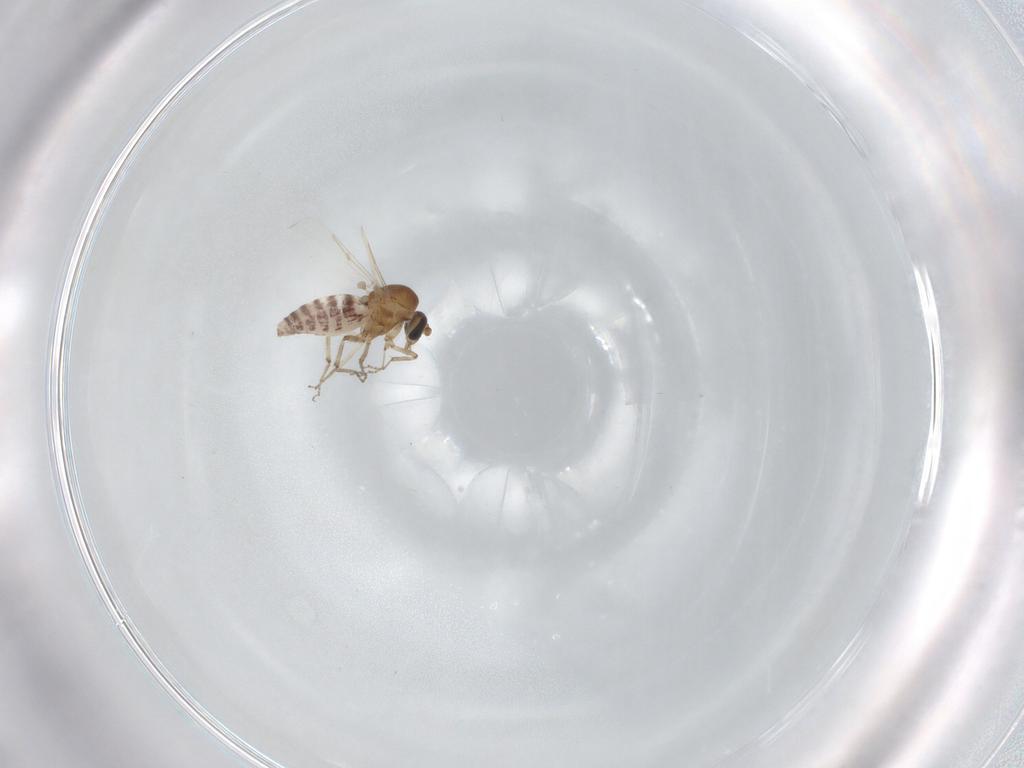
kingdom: Animalia
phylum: Arthropoda
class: Insecta
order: Diptera
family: Ceratopogonidae
